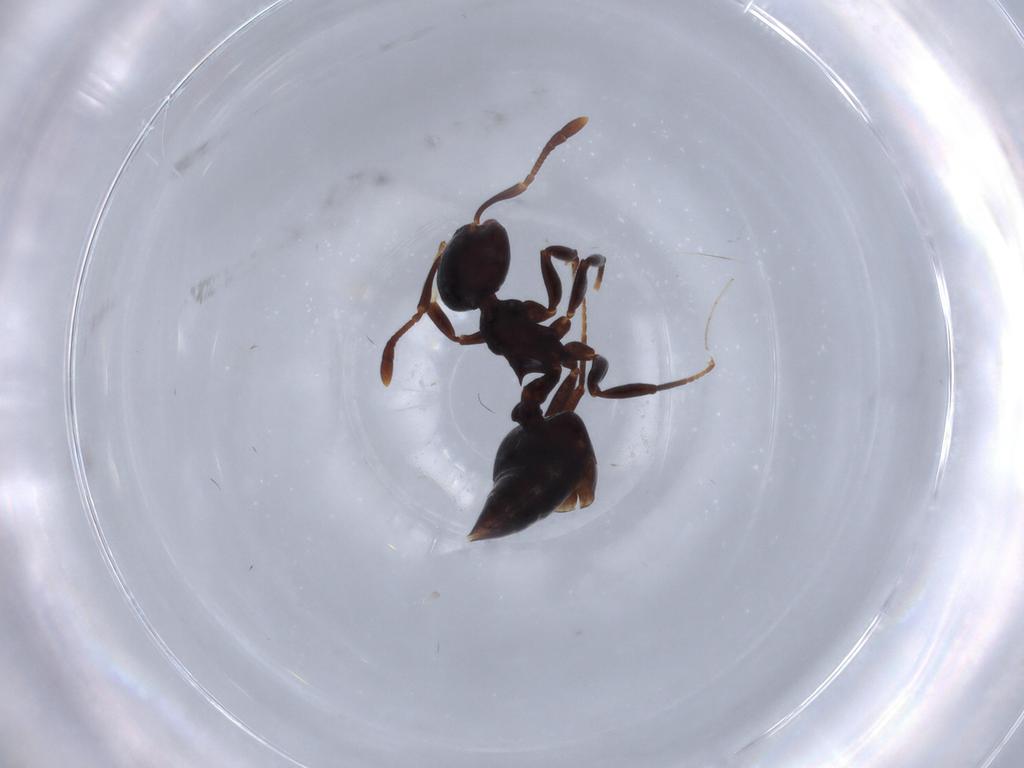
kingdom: Animalia
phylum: Arthropoda
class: Insecta
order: Hymenoptera
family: Formicidae
